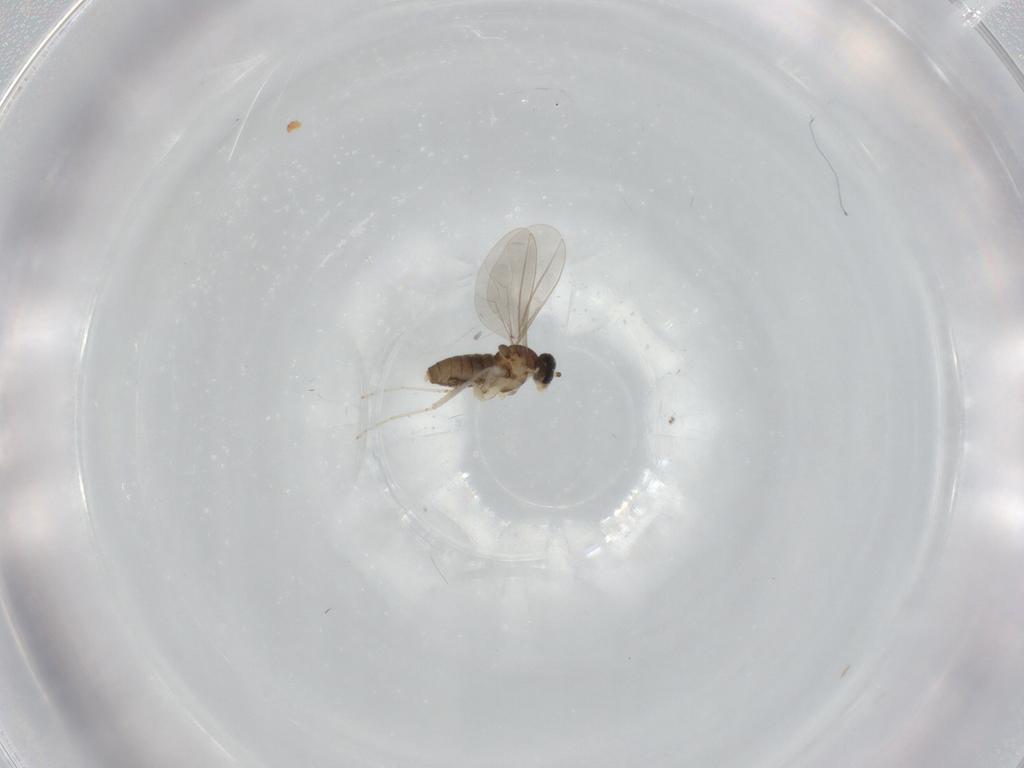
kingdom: Animalia
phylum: Arthropoda
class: Insecta
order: Diptera
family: Cecidomyiidae
